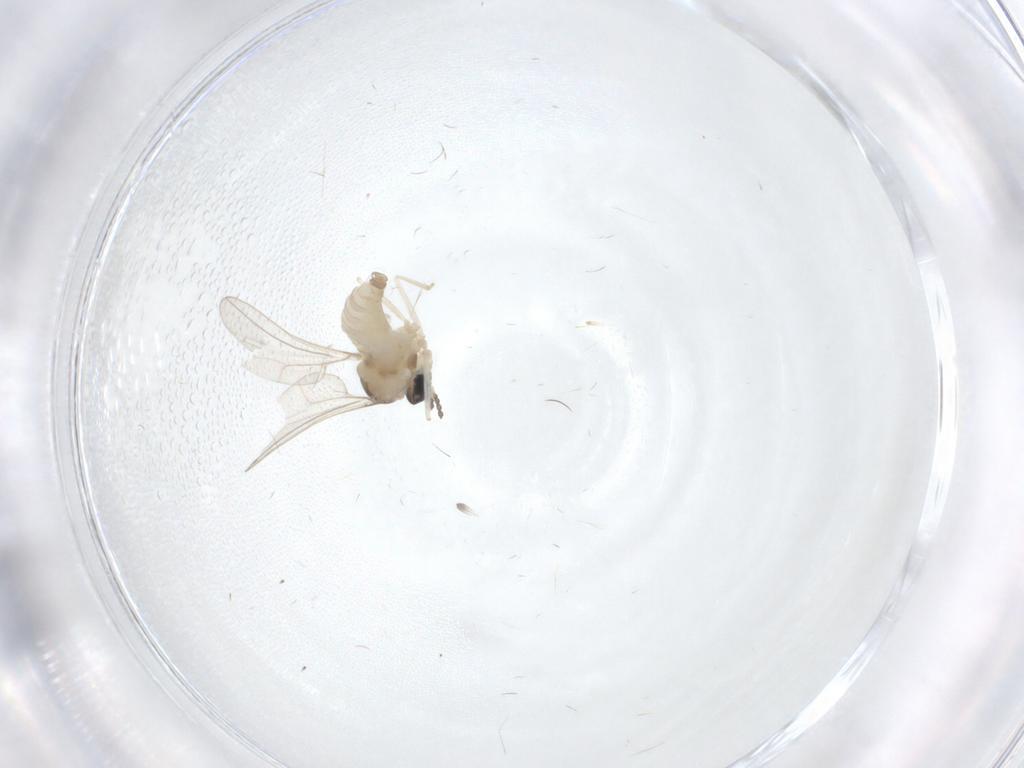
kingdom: Animalia
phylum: Arthropoda
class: Insecta
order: Diptera
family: Cecidomyiidae
